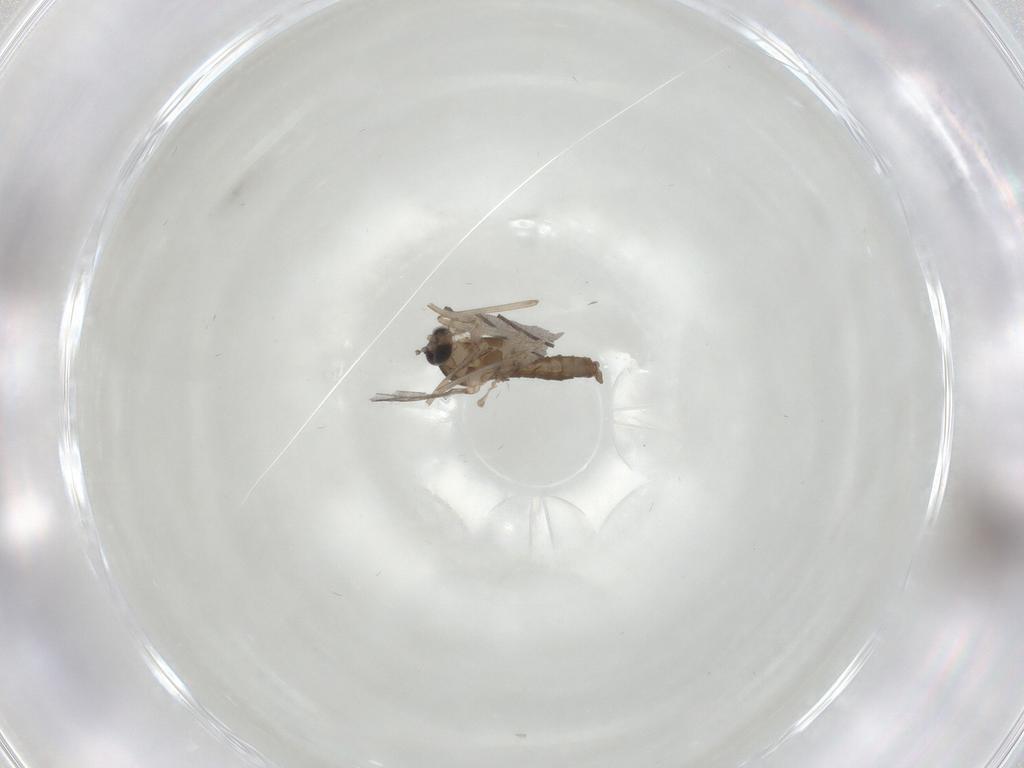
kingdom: Animalia
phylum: Arthropoda
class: Insecta
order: Diptera
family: Cecidomyiidae
